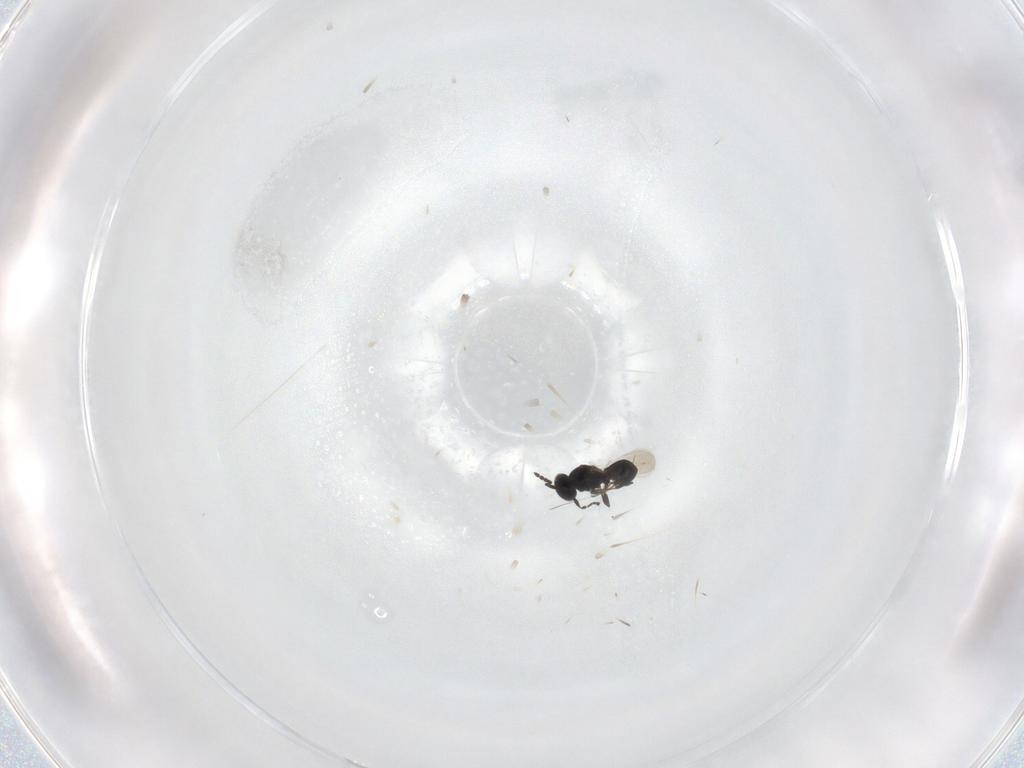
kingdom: Animalia
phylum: Arthropoda
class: Insecta
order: Hymenoptera
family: Platygastridae
